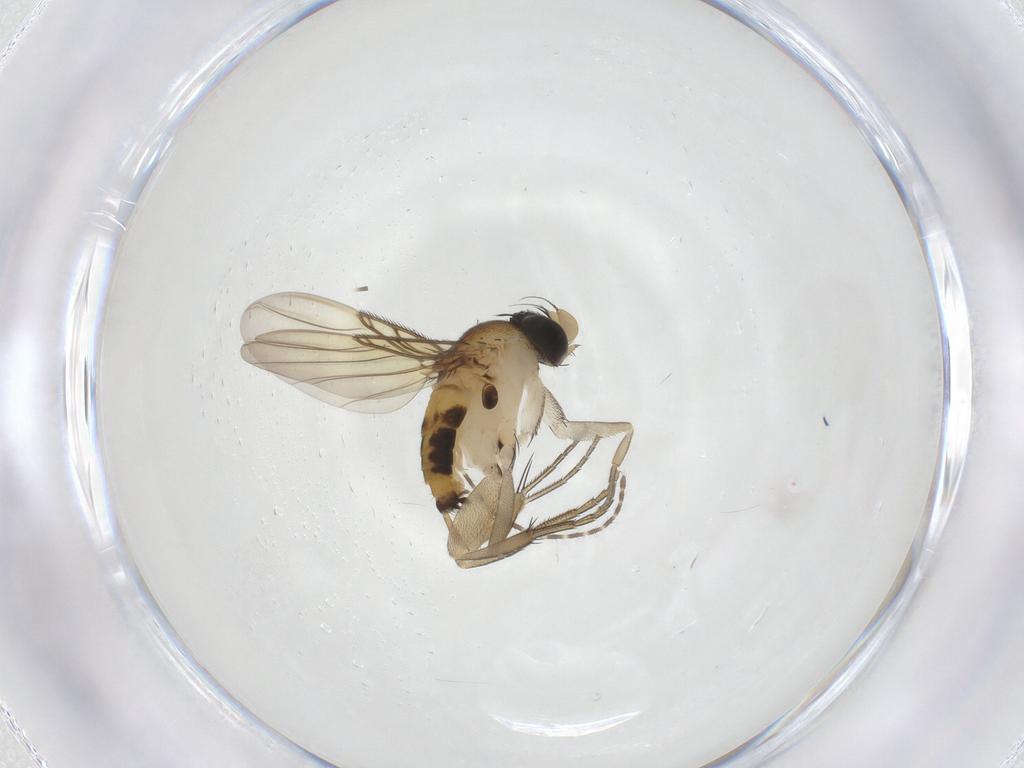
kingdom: Animalia
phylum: Arthropoda
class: Insecta
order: Diptera
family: Phoridae
